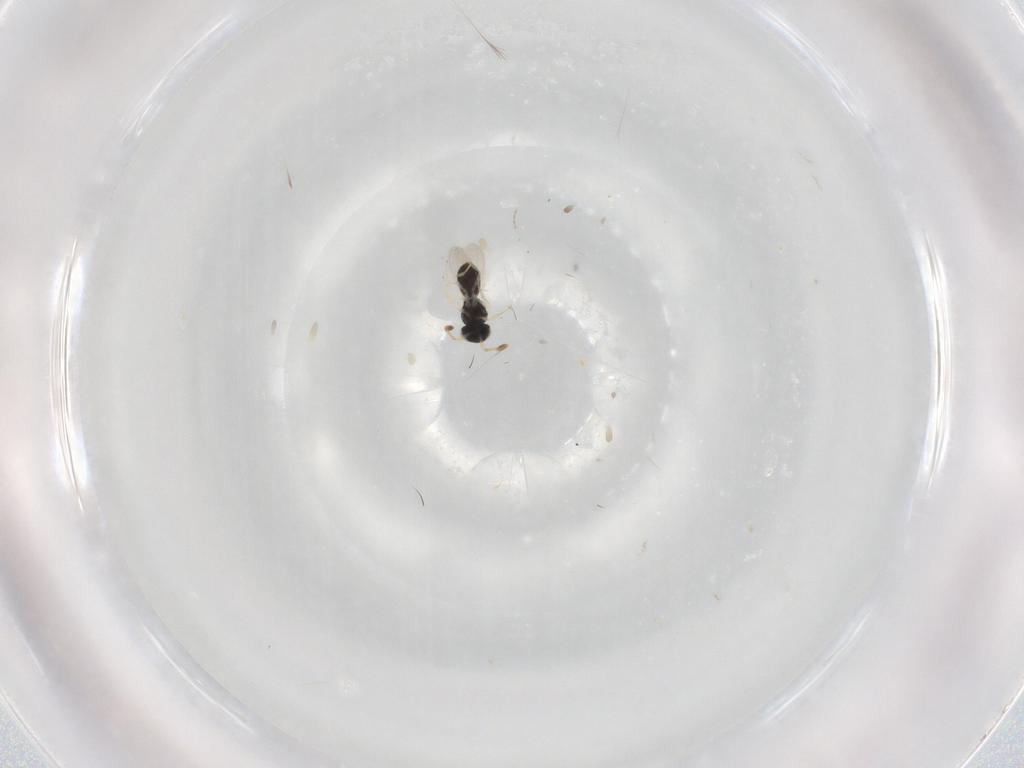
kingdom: Animalia
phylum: Arthropoda
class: Insecta
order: Hymenoptera
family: Scelionidae
